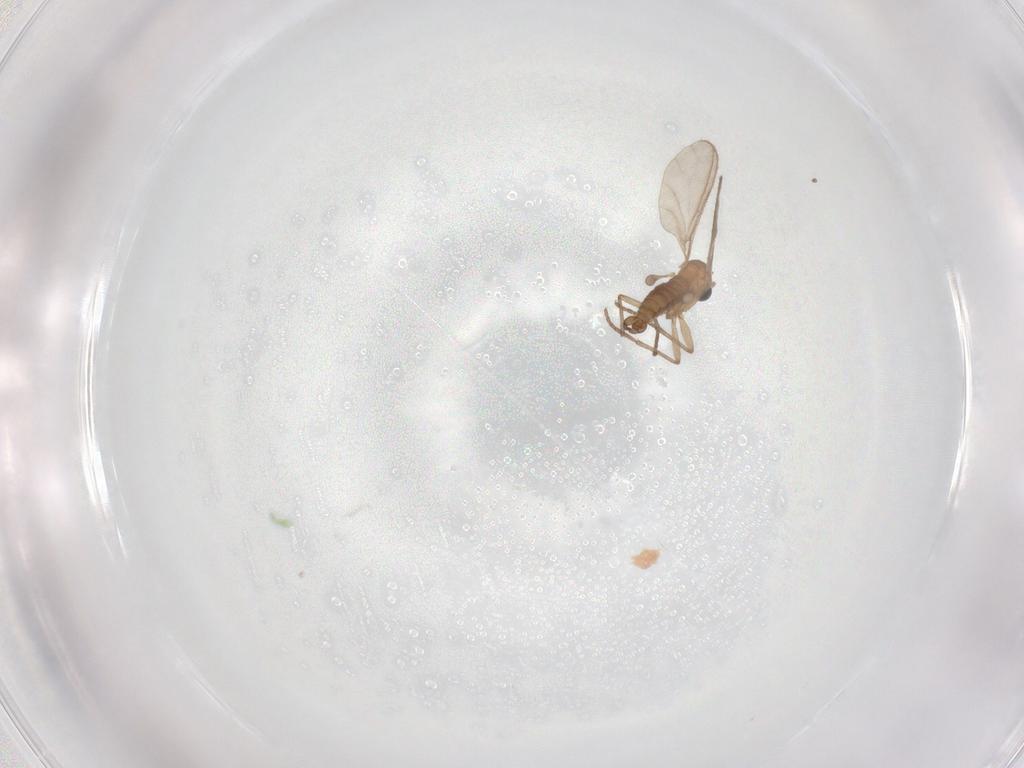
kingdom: Animalia
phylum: Arthropoda
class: Insecta
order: Diptera
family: Sciaridae
